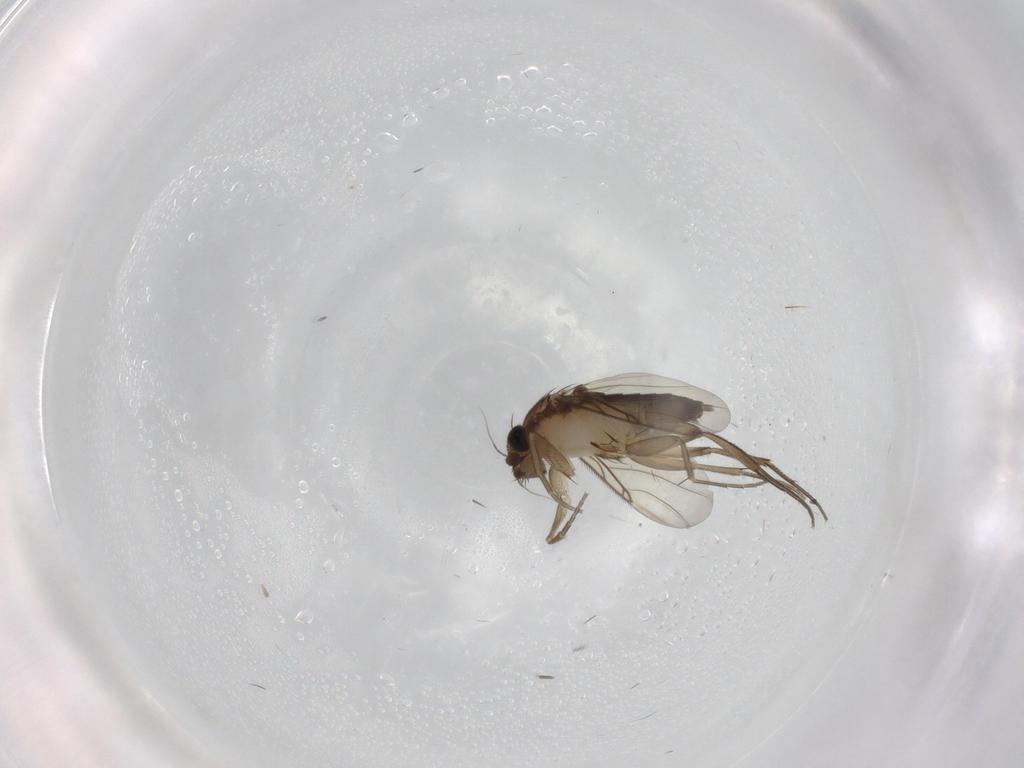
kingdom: Animalia
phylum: Arthropoda
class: Insecta
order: Diptera
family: Phoridae
